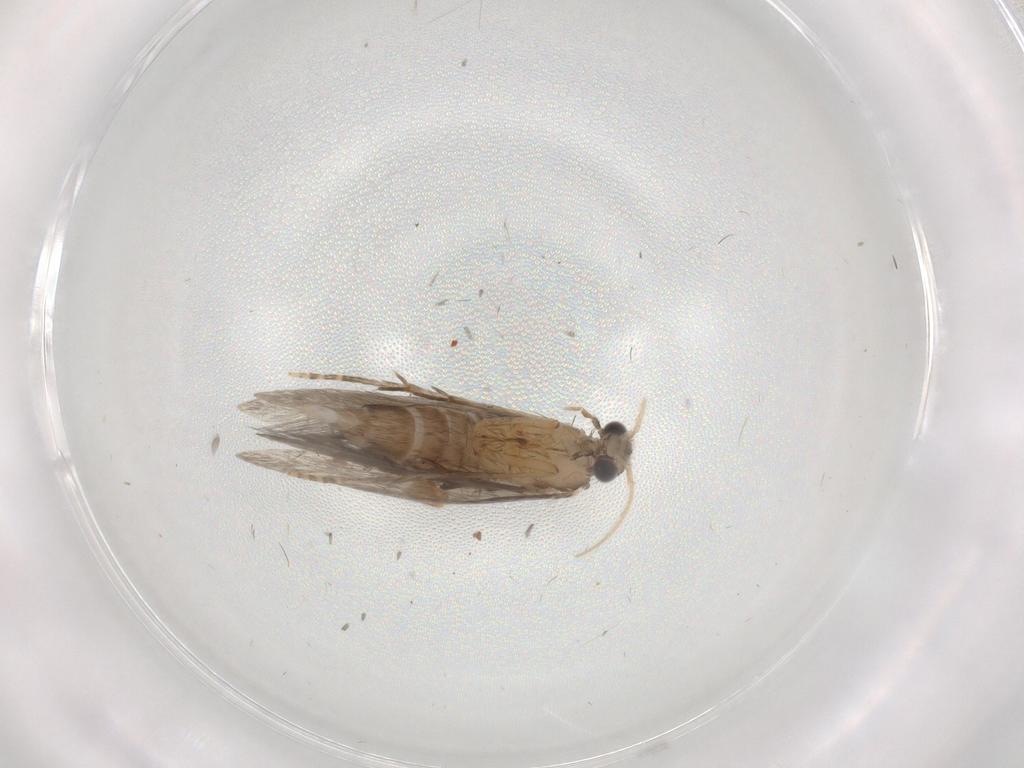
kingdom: Animalia
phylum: Arthropoda
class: Insecta
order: Trichoptera
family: Hydroptilidae
